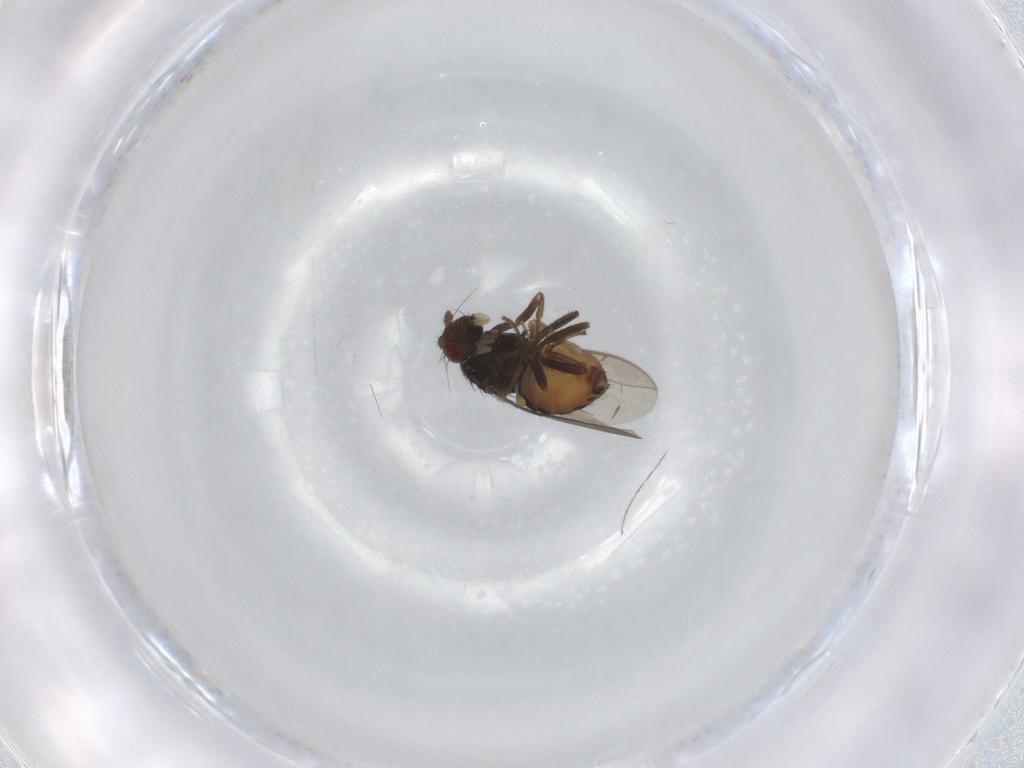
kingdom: Animalia
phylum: Arthropoda
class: Insecta
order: Diptera
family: Sphaeroceridae
